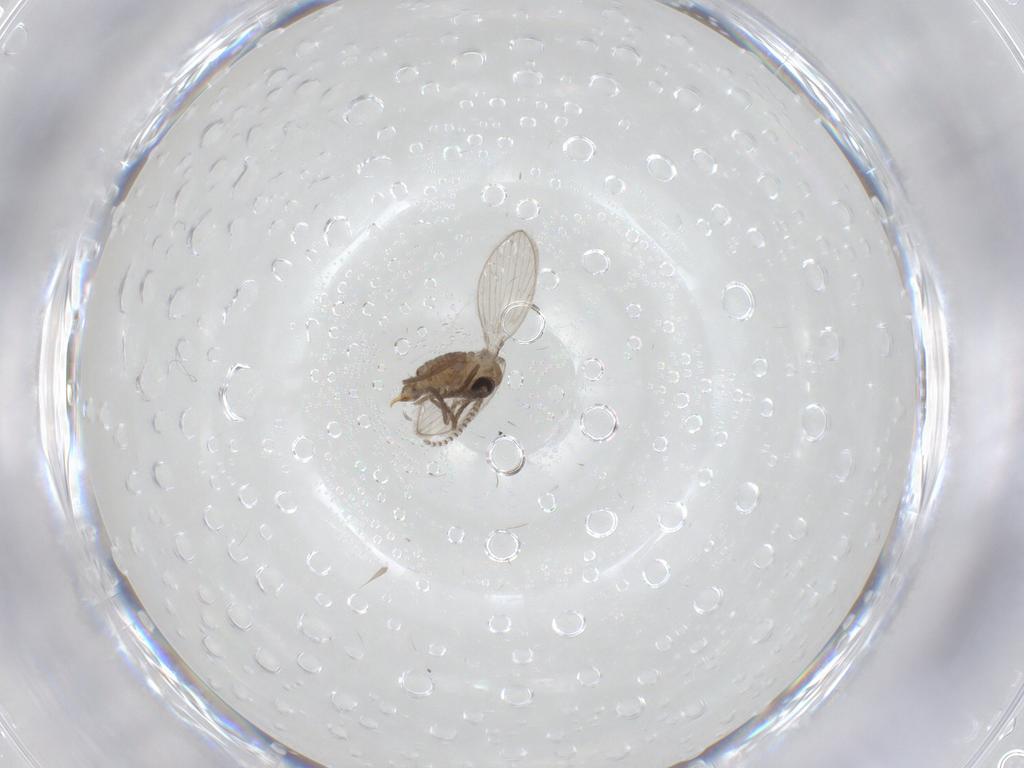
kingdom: Animalia
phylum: Arthropoda
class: Insecta
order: Diptera
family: Psychodidae
